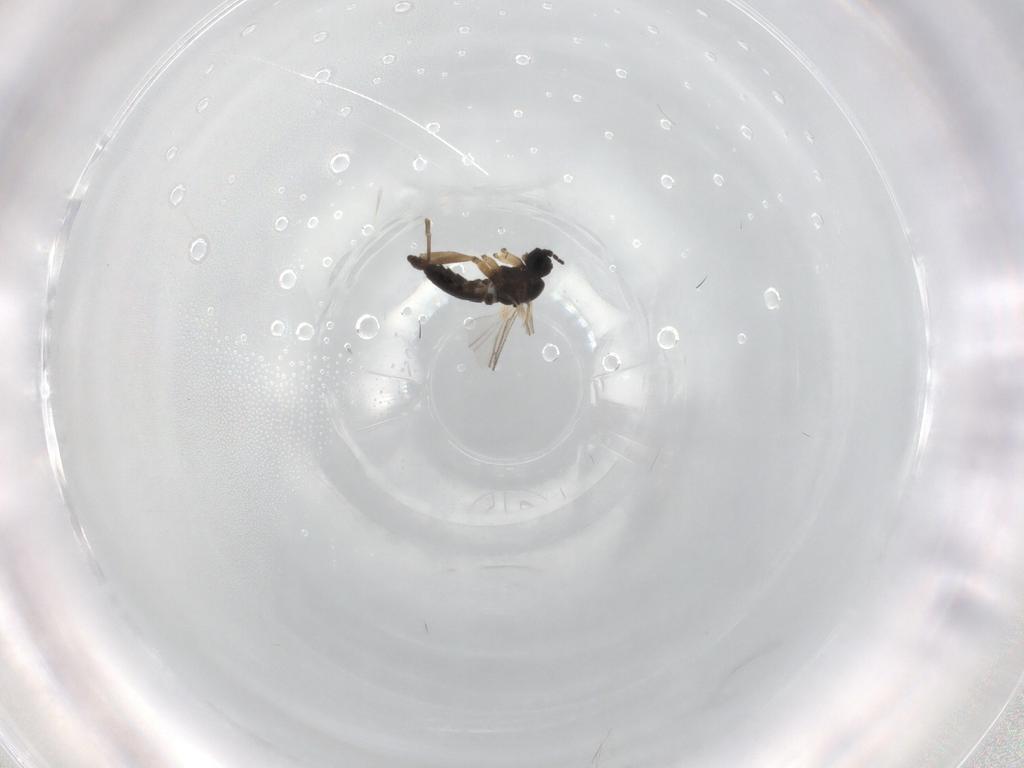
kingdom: Animalia
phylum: Arthropoda
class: Insecta
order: Diptera
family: Sciaridae
